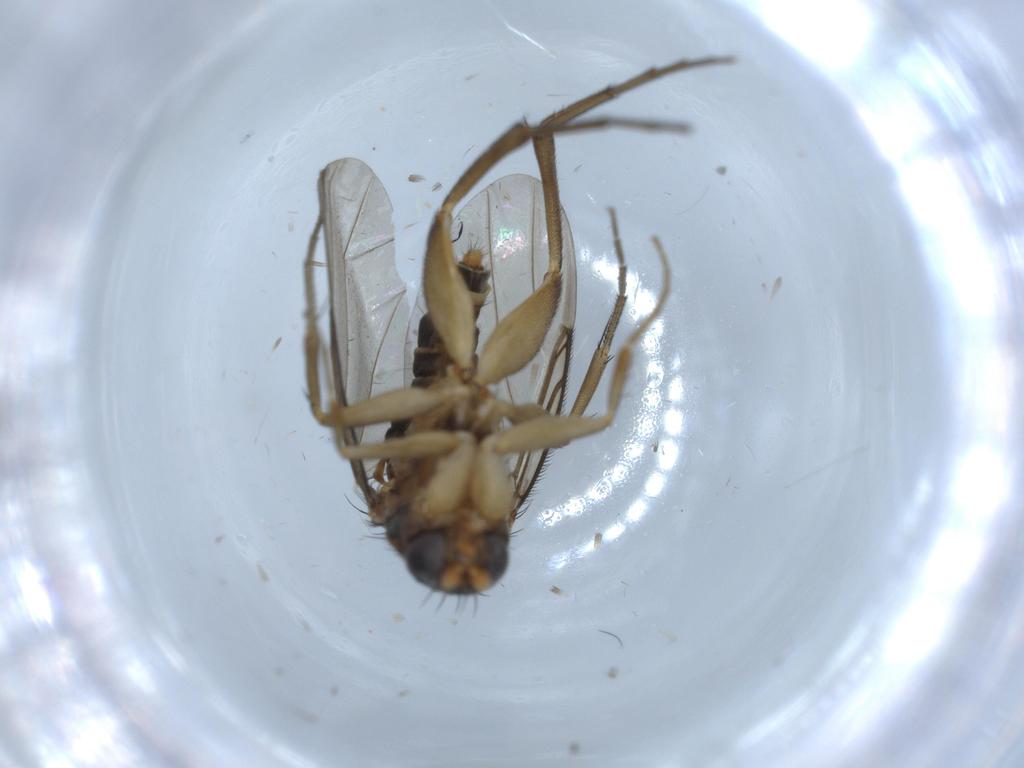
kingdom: Animalia
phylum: Arthropoda
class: Insecta
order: Diptera
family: Phoridae
